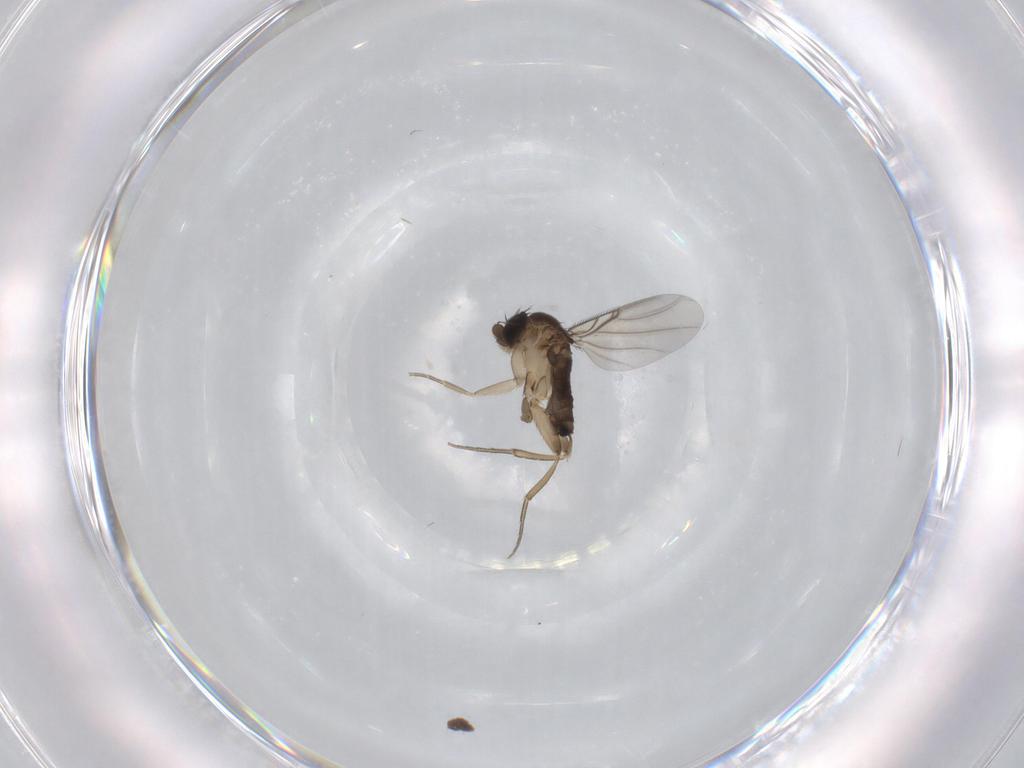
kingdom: Animalia
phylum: Arthropoda
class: Insecta
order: Diptera
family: Phoridae
